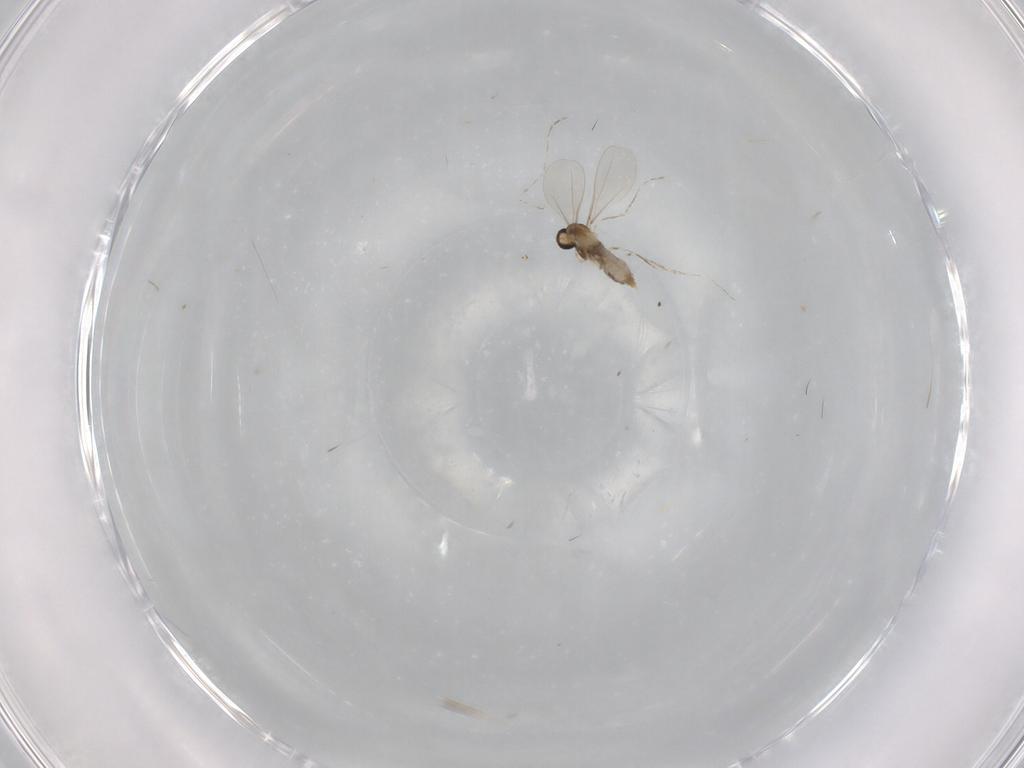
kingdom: Animalia
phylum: Arthropoda
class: Insecta
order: Diptera
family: Cecidomyiidae
